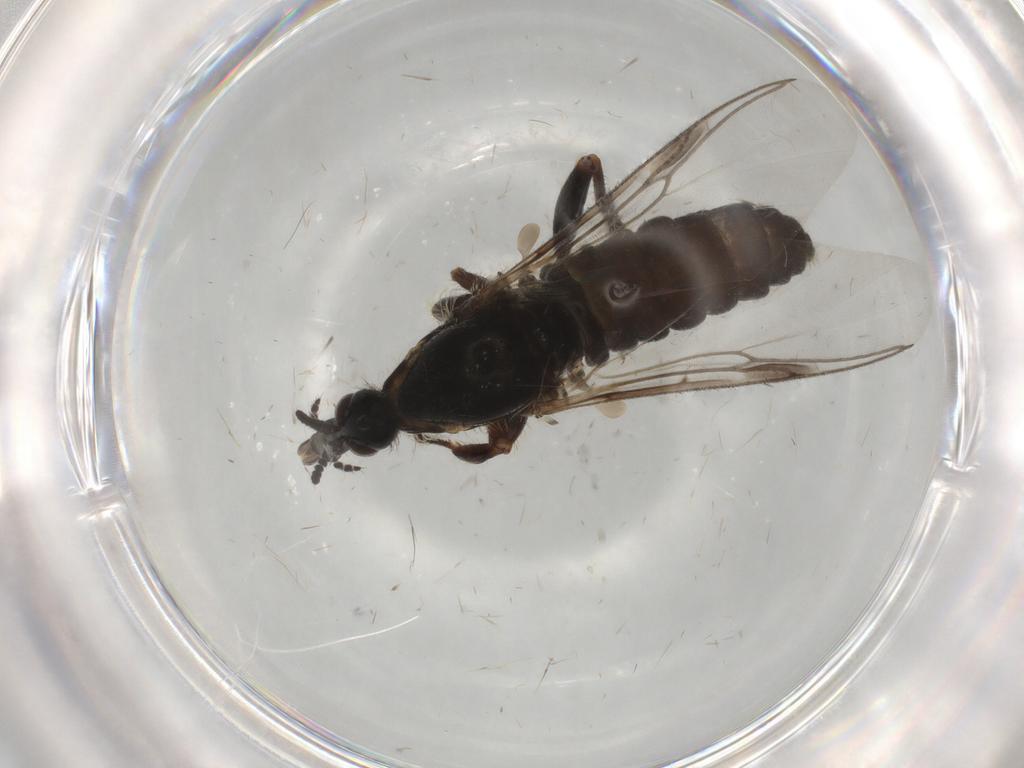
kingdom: Animalia
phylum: Arthropoda
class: Insecta
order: Diptera
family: Bibionidae
